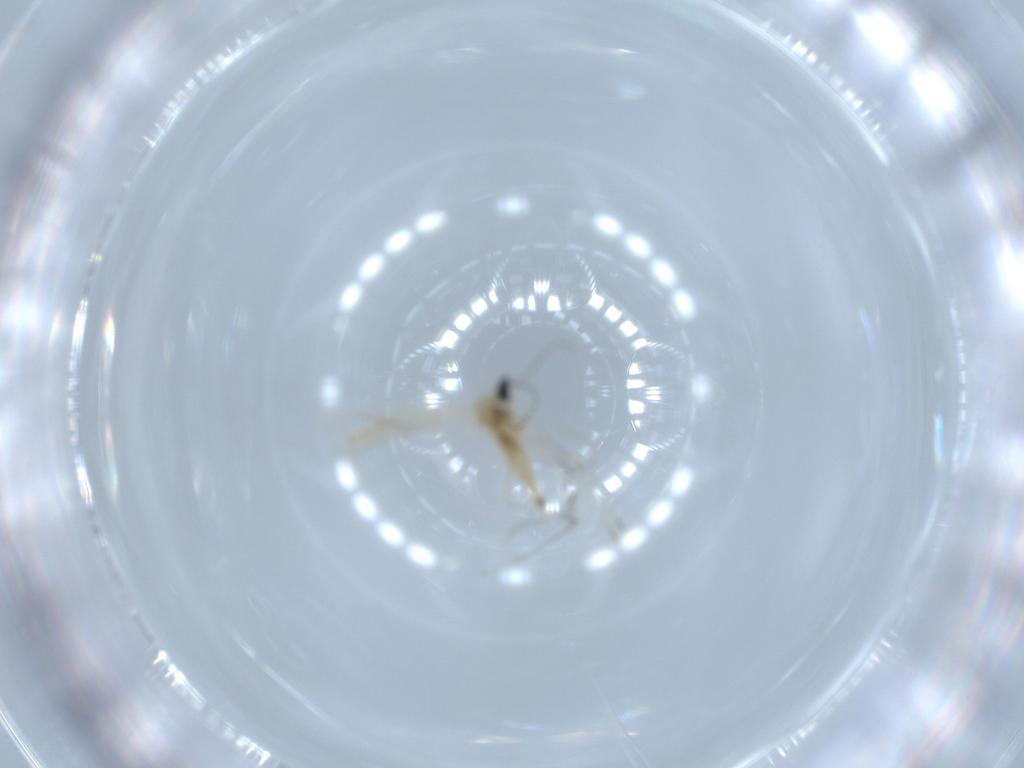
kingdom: Animalia
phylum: Arthropoda
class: Insecta
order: Diptera
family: Cecidomyiidae
